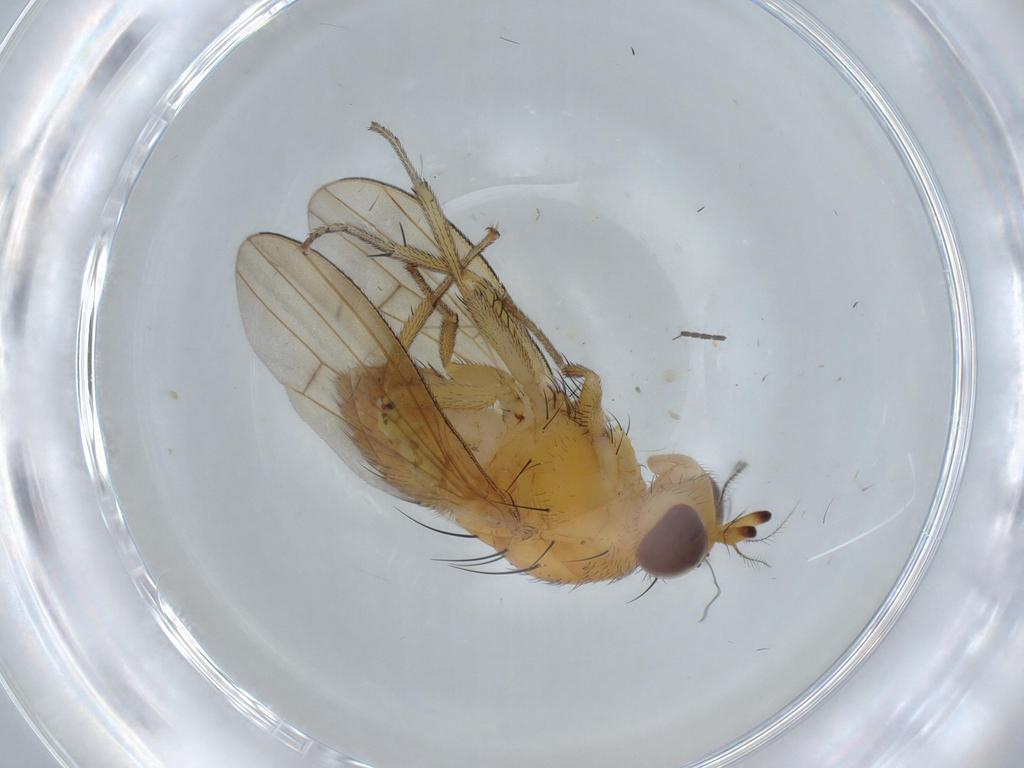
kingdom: Animalia
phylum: Arthropoda
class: Insecta
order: Diptera
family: Lauxaniidae
